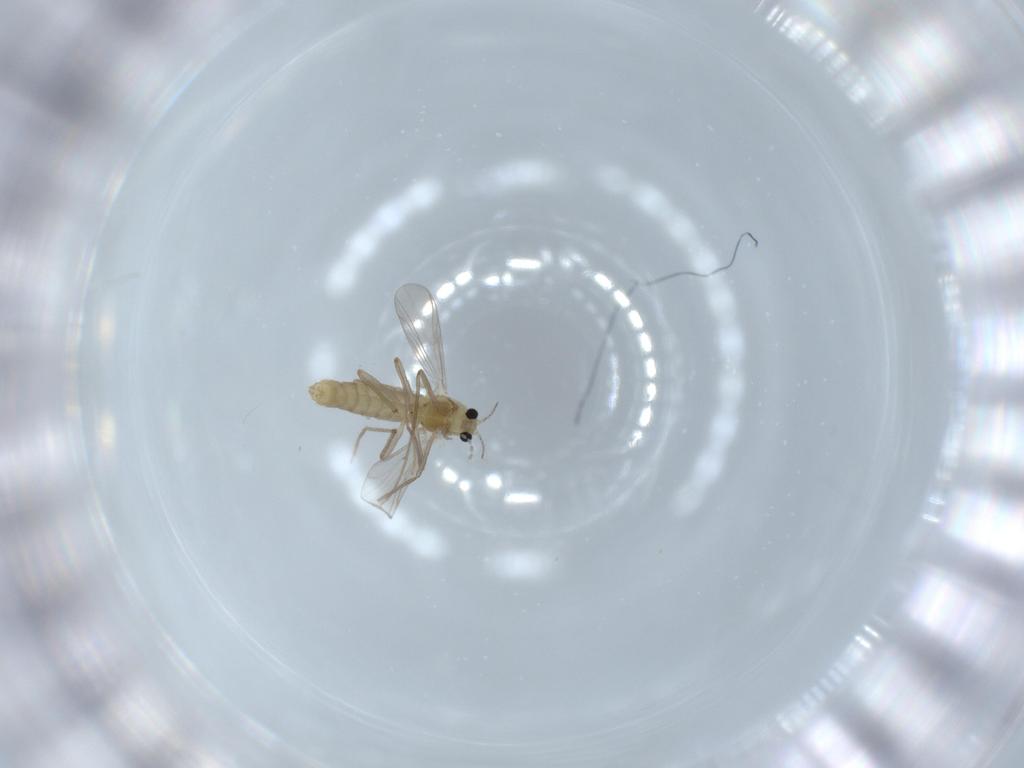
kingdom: Animalia
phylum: Arthropoda
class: Insecta
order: Diptera
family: Chironomidae
